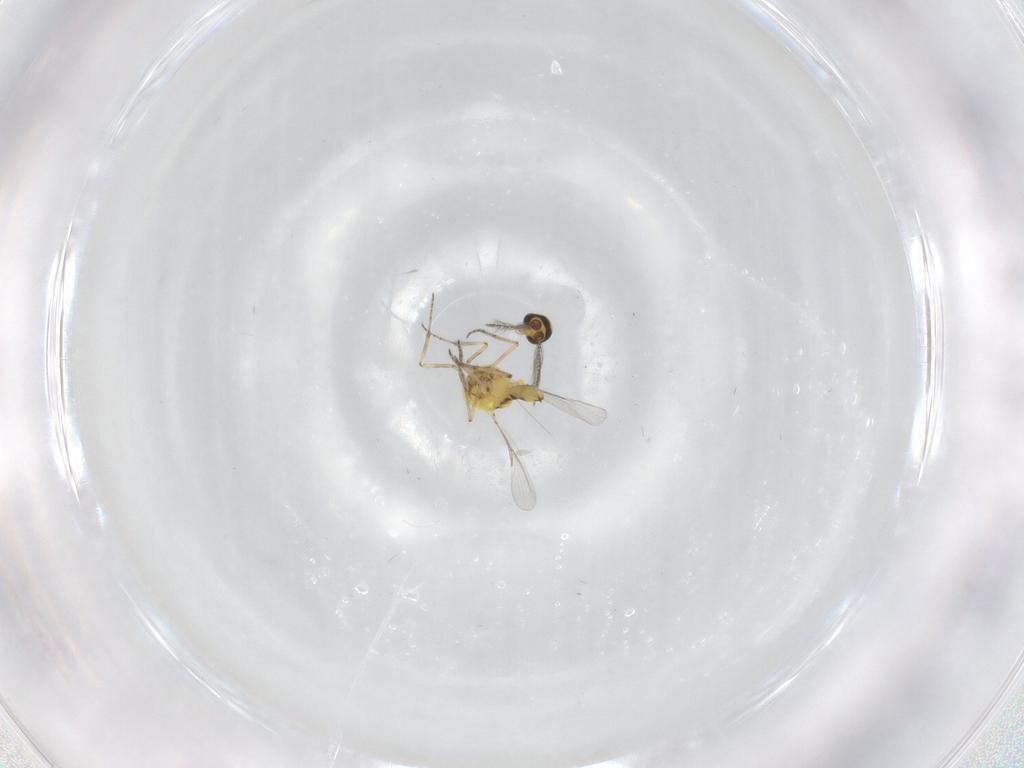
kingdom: Animalia
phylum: Arthropoda
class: Insecta
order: Diptera
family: Ceratopogonidae
